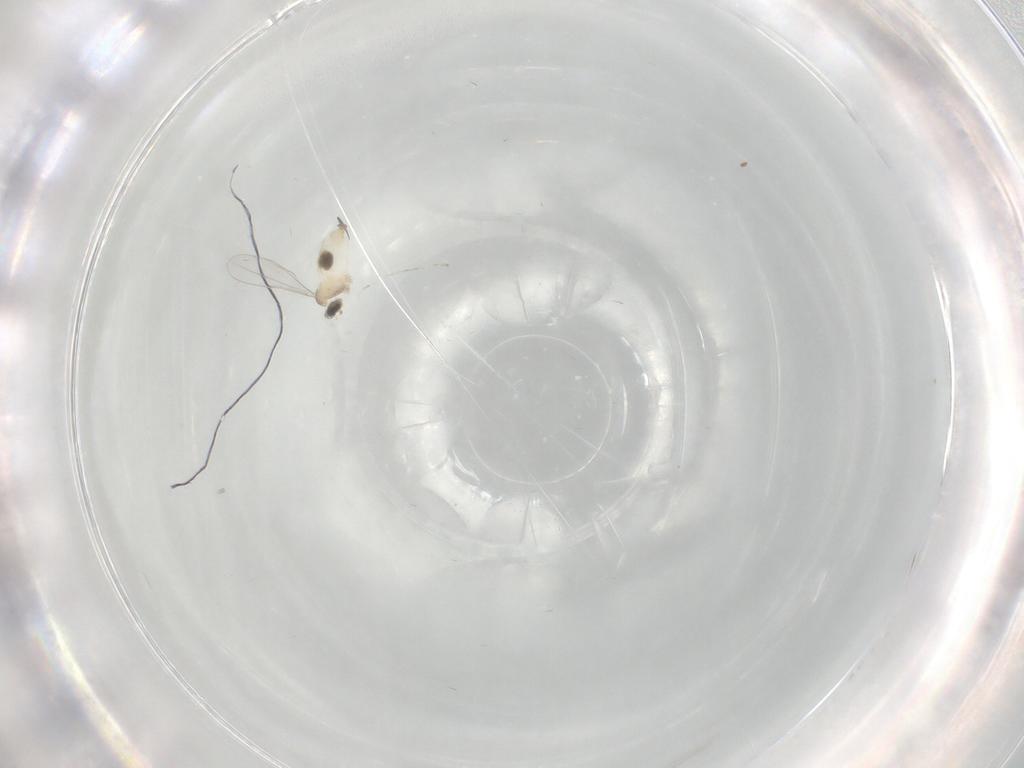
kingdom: Animalia
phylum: Arthropoda
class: Insecta
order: Diptera
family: Cecidomyiidae
